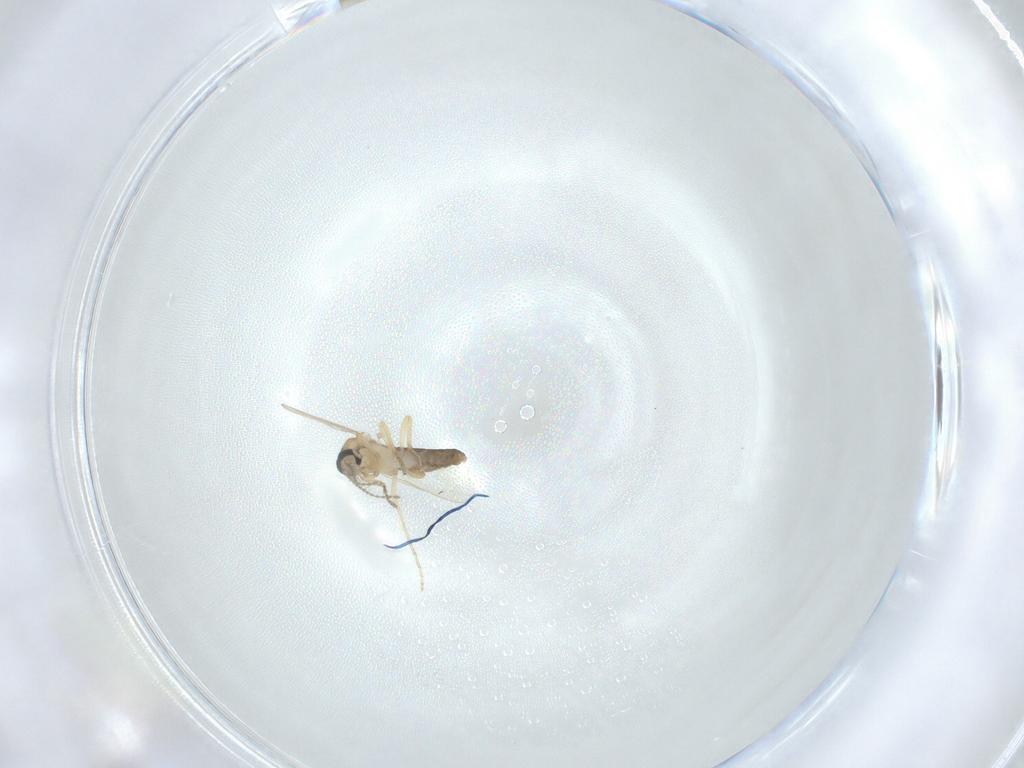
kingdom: Animalia
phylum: Arthropoda
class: Insecta
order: Diptera
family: Ceratopogonidae
